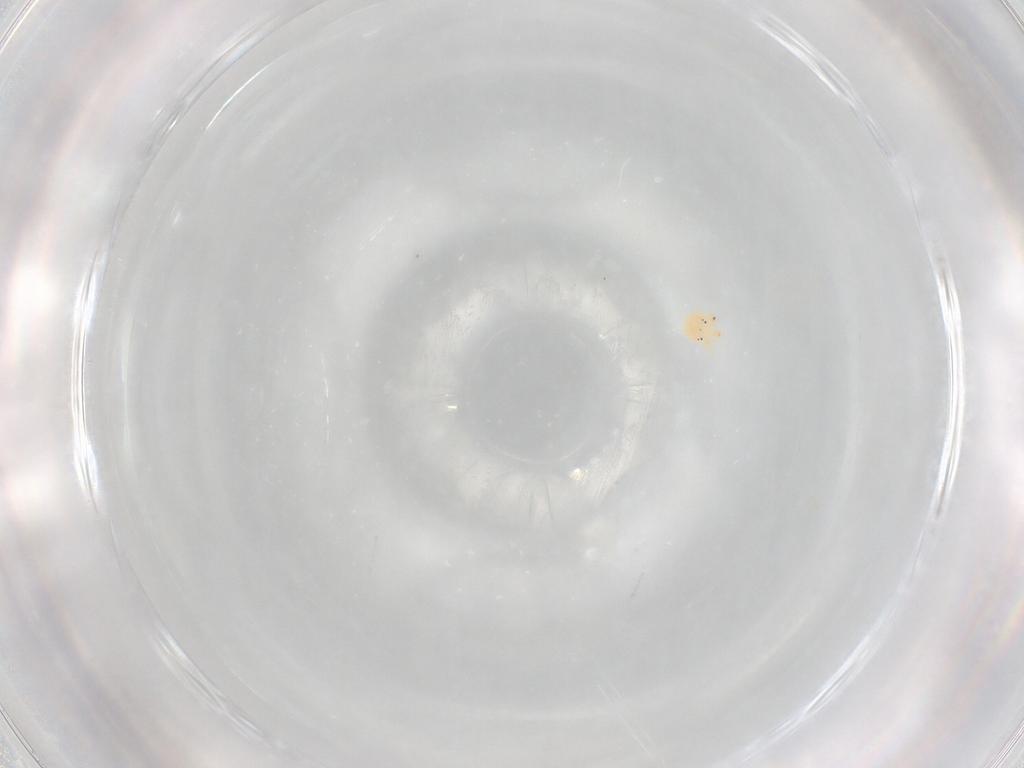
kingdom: Animalia
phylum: Arthropoda
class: Arachnida
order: Trombidiformes
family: Hydryphantidae
